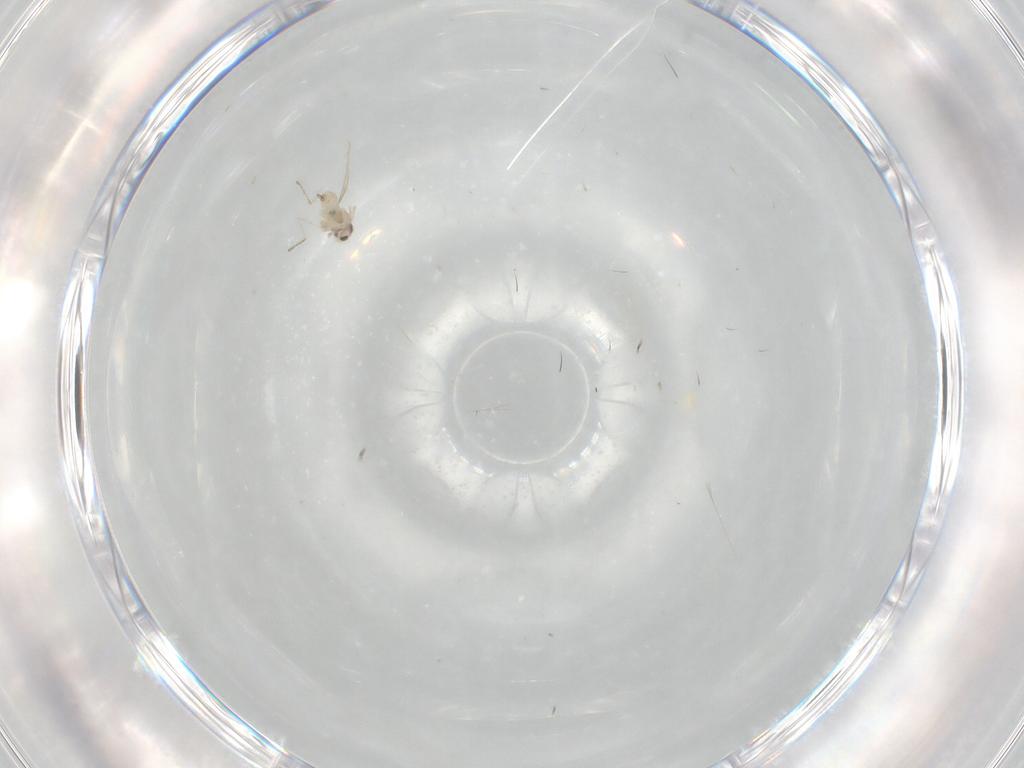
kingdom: Animalia
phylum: Arthropoda
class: Insecta
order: Diptera
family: Cecidomyiidae
